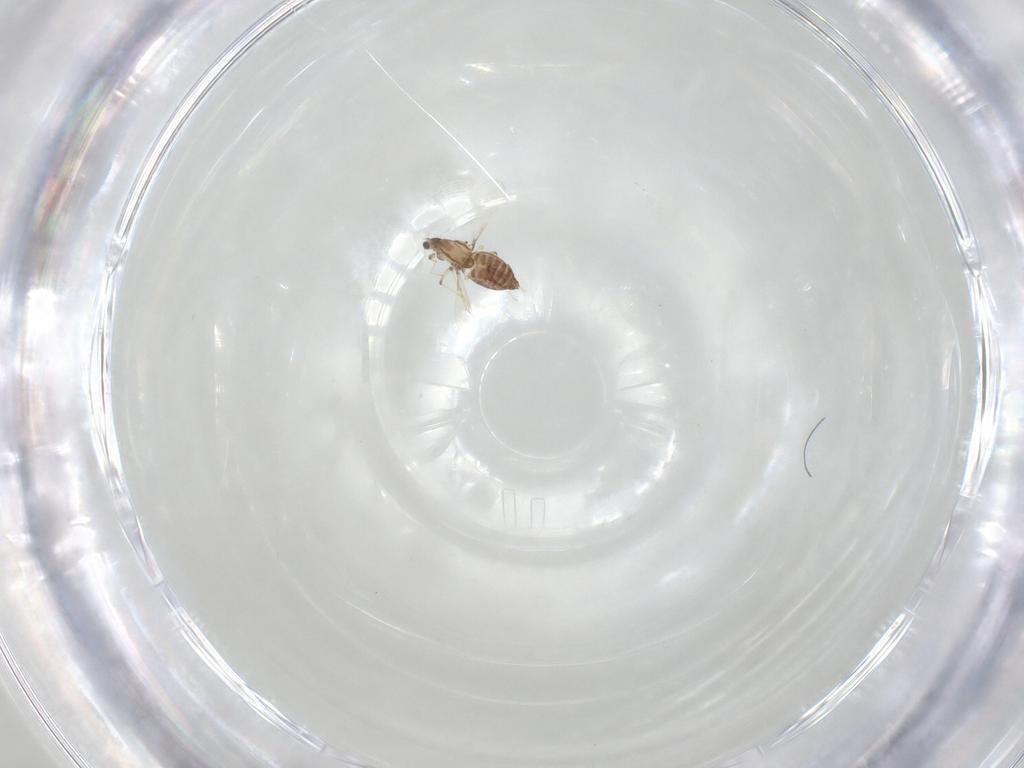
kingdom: Animalia
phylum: Arthropoda
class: Insecta
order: Diptera
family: Chironomidae
